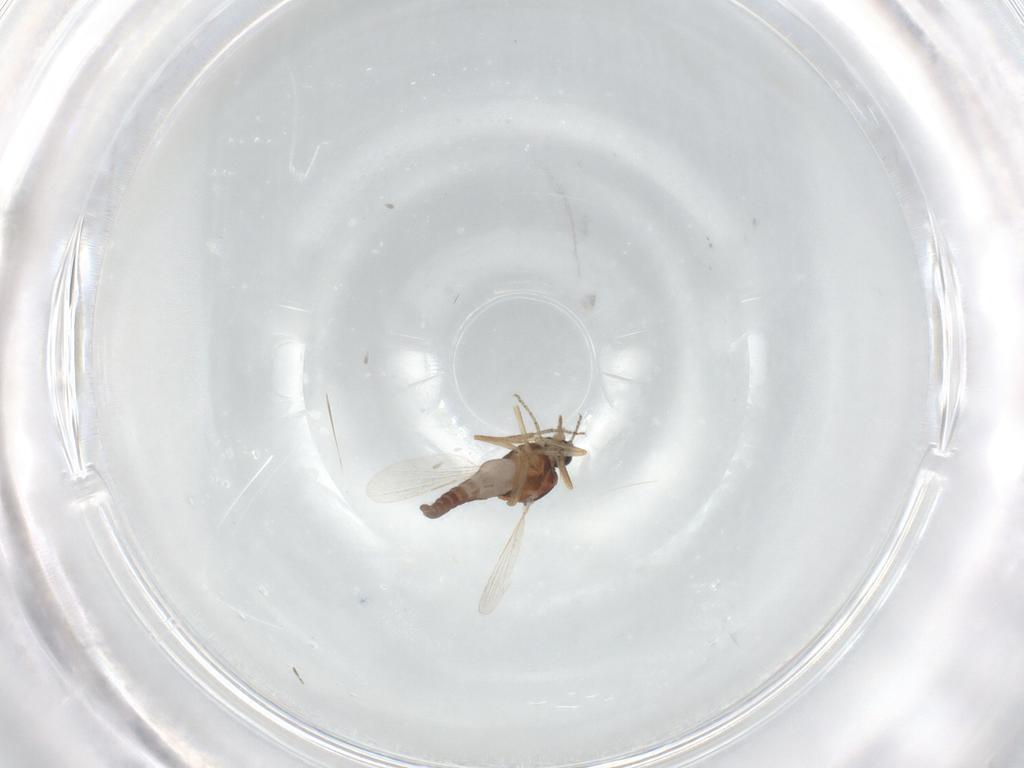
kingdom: Animalia
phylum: Arthropoda
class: Insecta
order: Diptera
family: Ceratopogonidae
